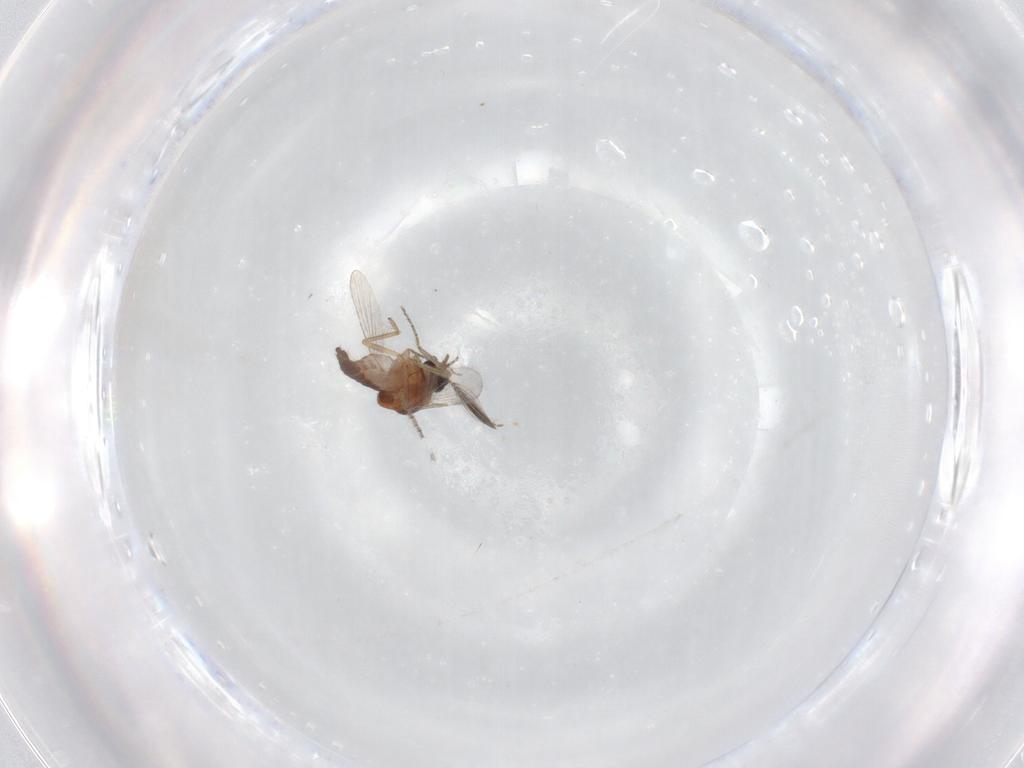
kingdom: Animalia
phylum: Arthropoda
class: Insecta
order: Diptera
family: Ceratopogonidae
